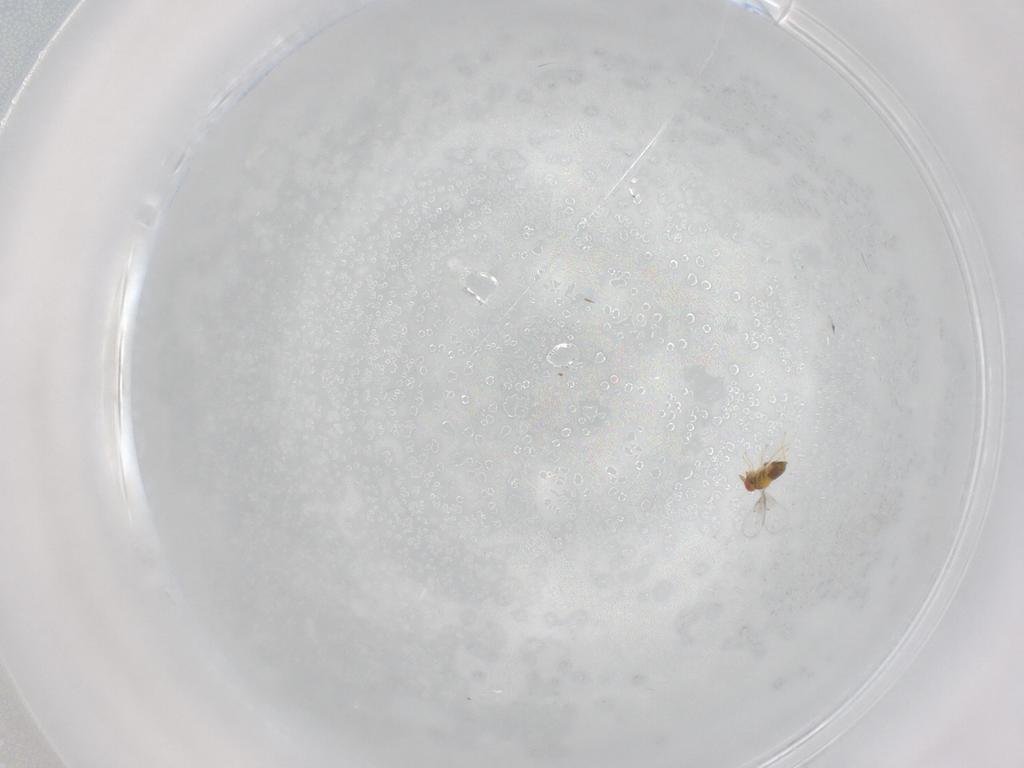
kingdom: Animalia
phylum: Arthropoda
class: Insecta
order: Hymenoptera
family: Trichogrammatidae
